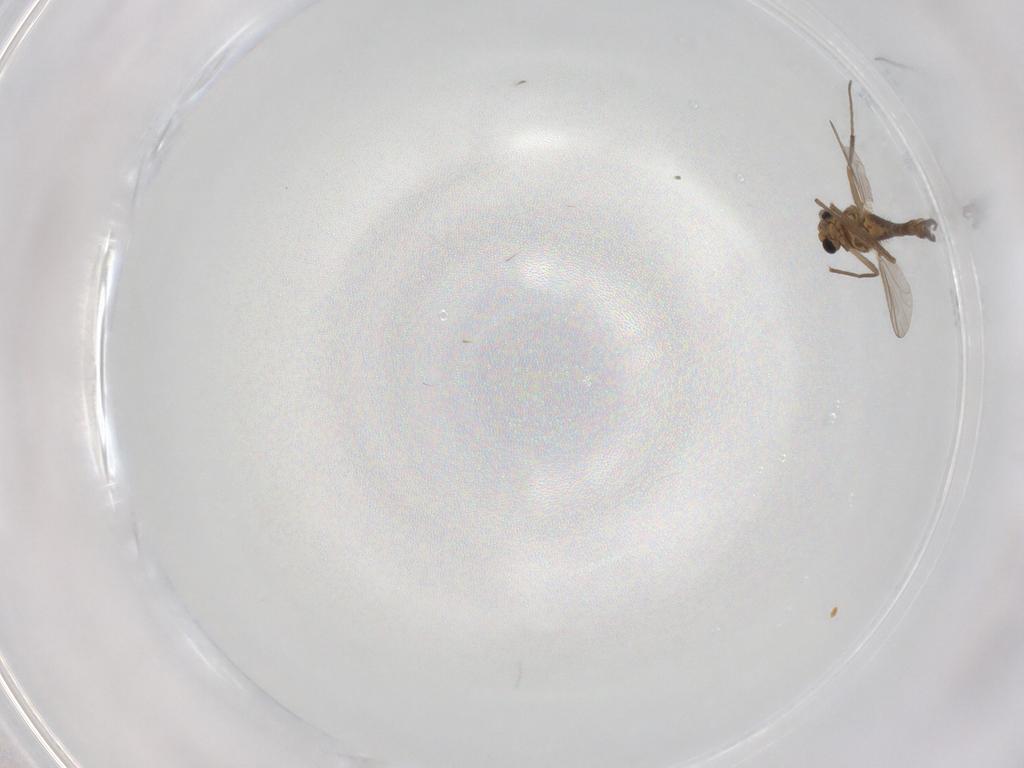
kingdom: Animalia
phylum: Arthropoda
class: Insecta
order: Diptera
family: Chironomidae
